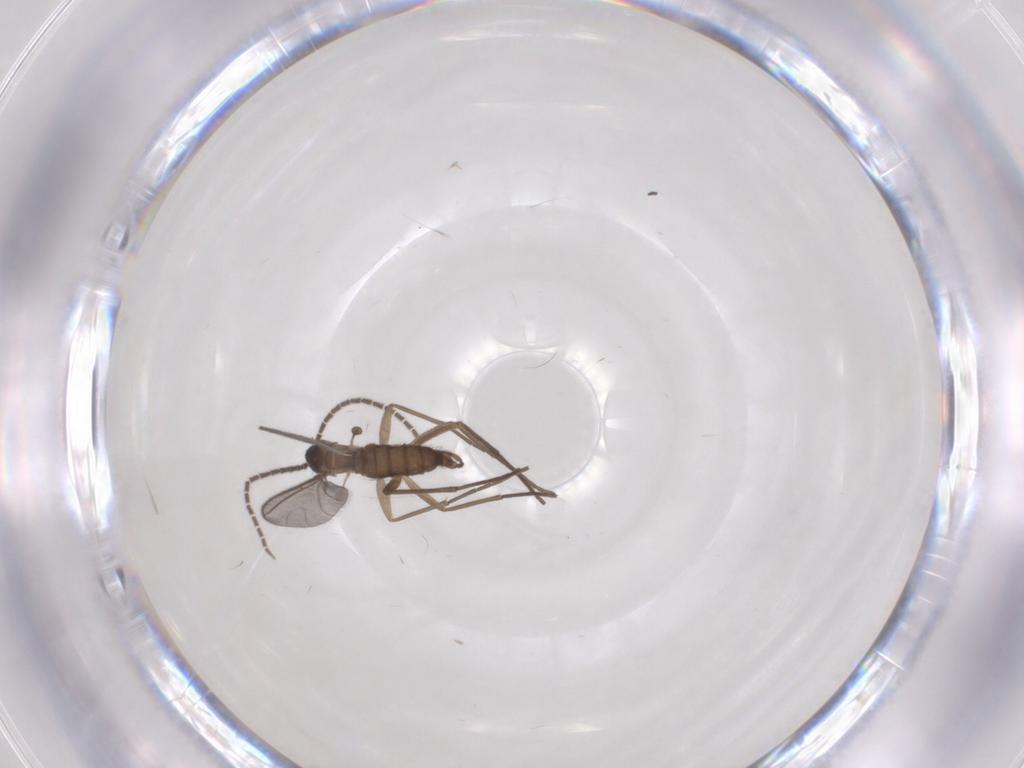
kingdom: Animalia
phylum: Arthropoda
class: Insecta
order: Diptera
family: Sciaridae
